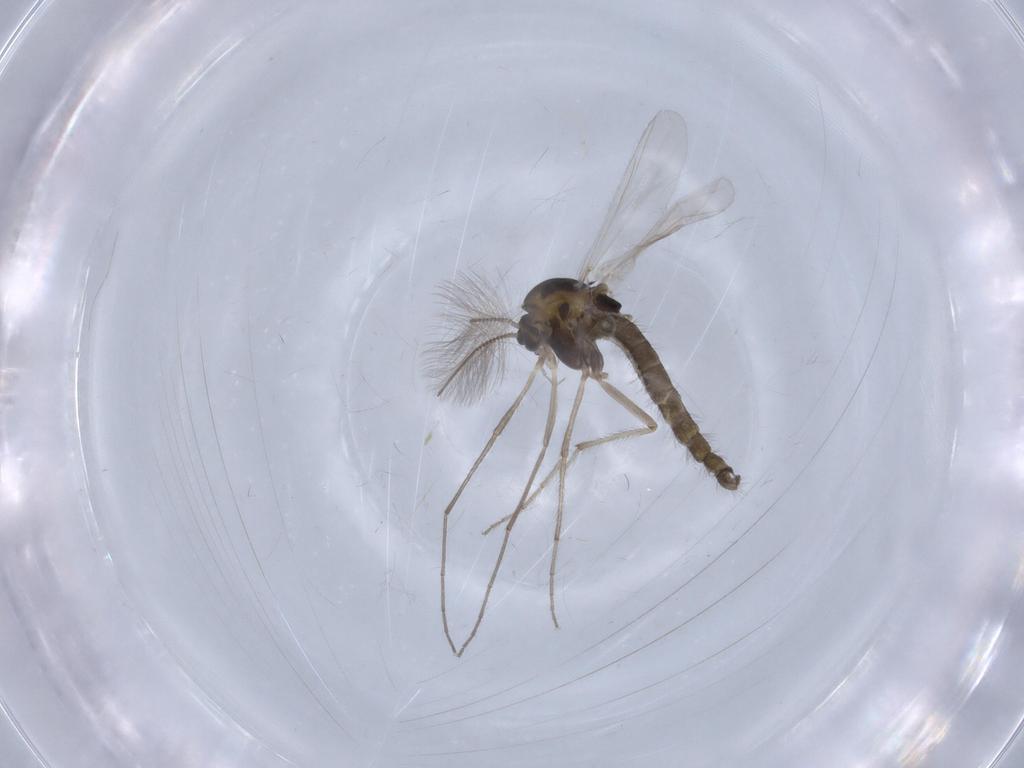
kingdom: Animalia
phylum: Arthropoda
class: Insecta
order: Diptera
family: Chironomidae
